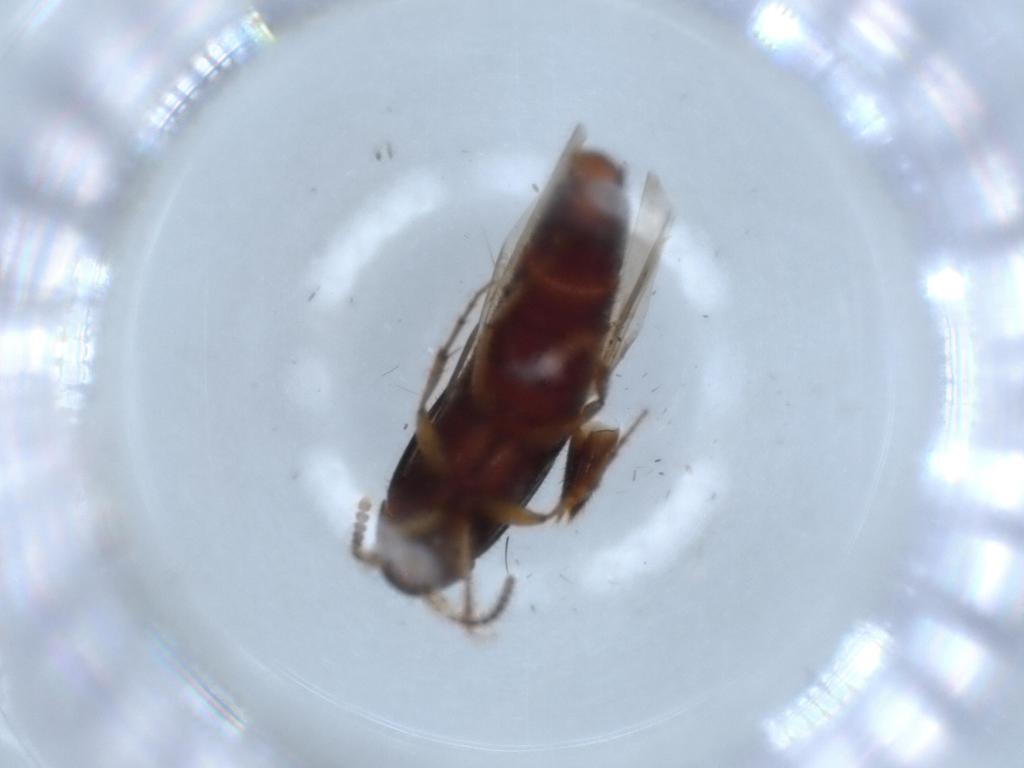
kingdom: Animalia
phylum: Arthropoda
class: Insecta
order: Coleoptera
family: Staphylinidae
